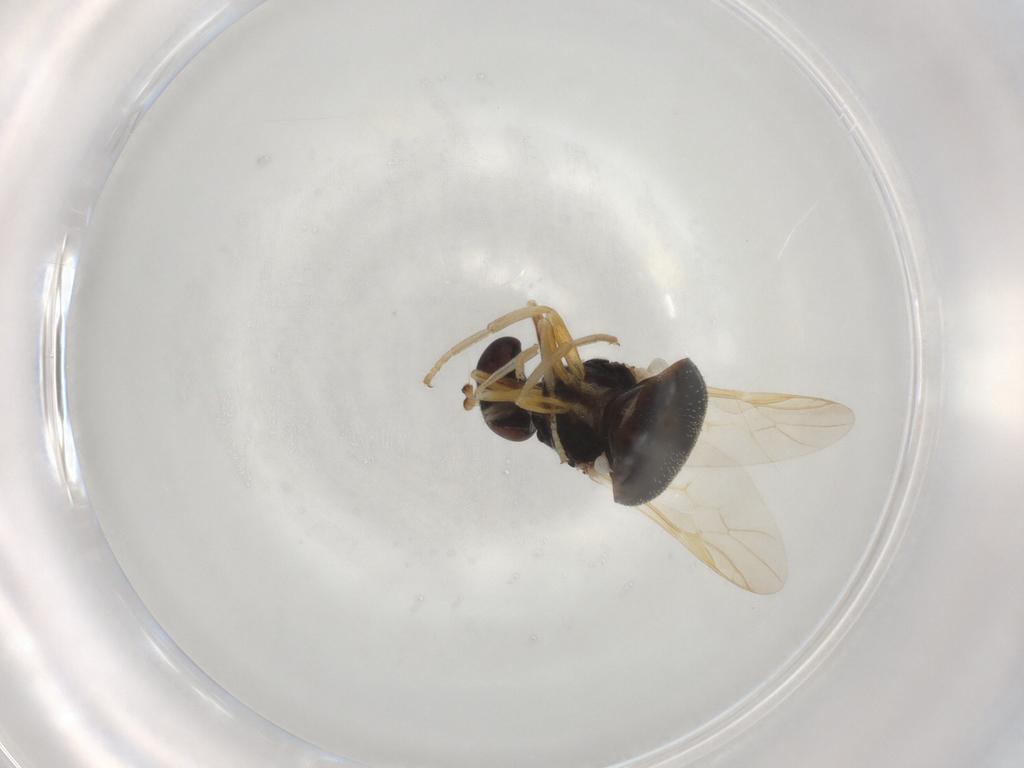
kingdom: Animalia
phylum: Arthropoda
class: Insecta
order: Diptera
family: Stratiomyidae
